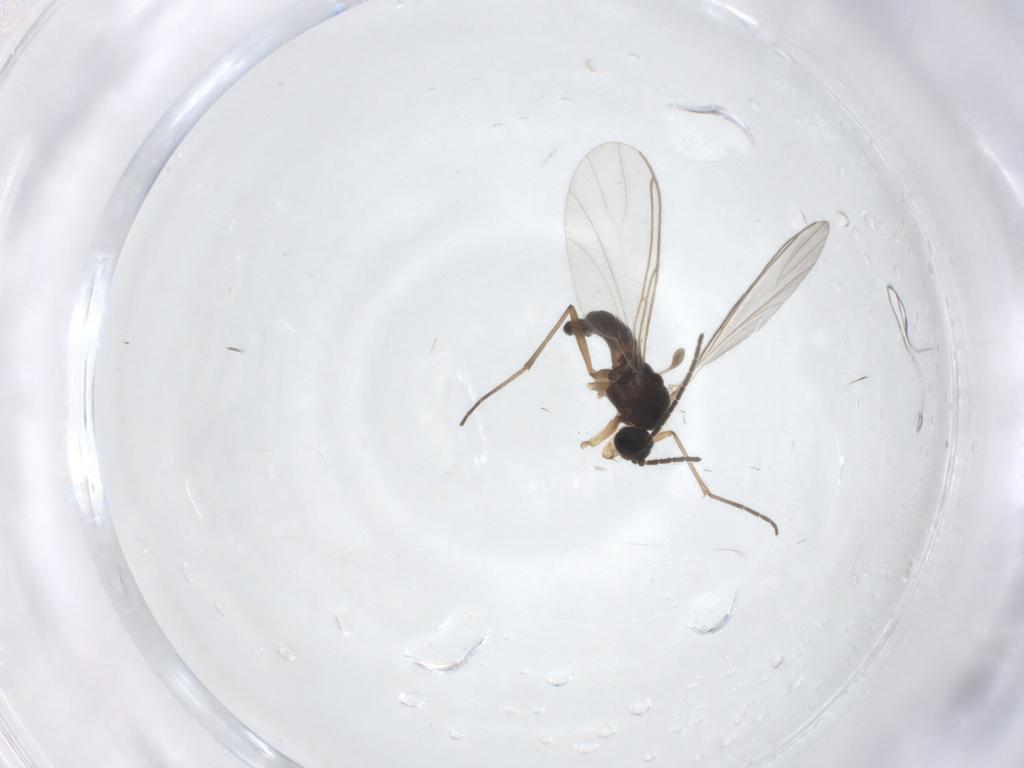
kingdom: Animalia
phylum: Arthropoda
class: Insecta
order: Diptera
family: Sciaridae
